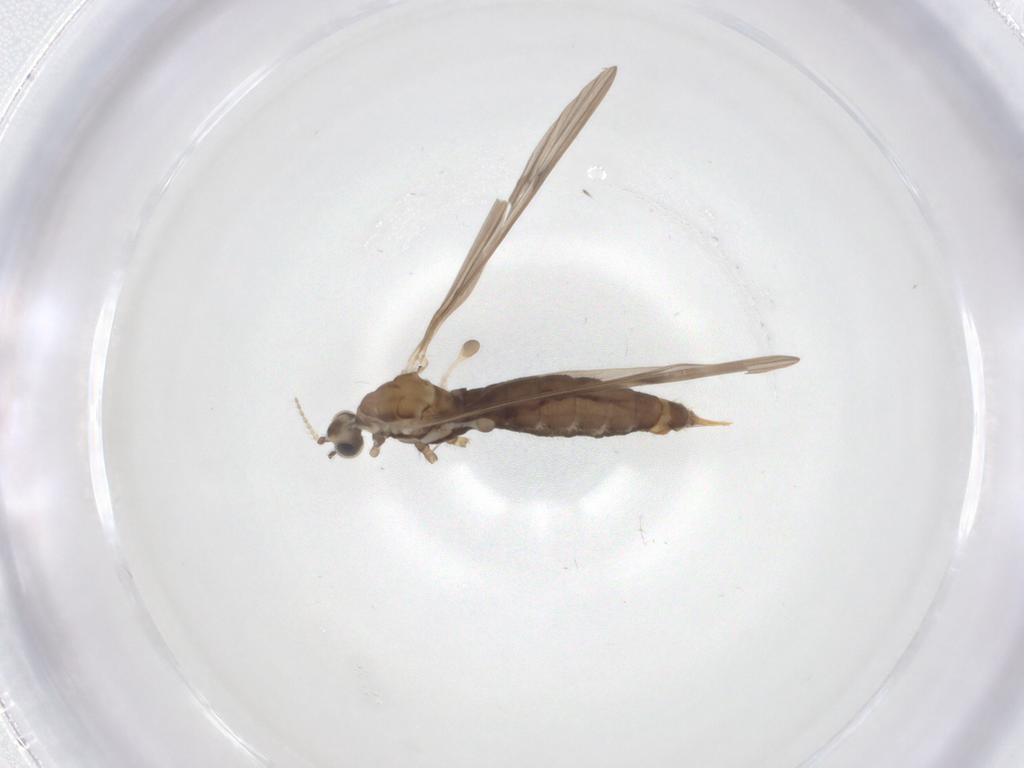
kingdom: Animalia
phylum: Arthropoda
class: Insecta
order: Diptera
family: Limoniidae
